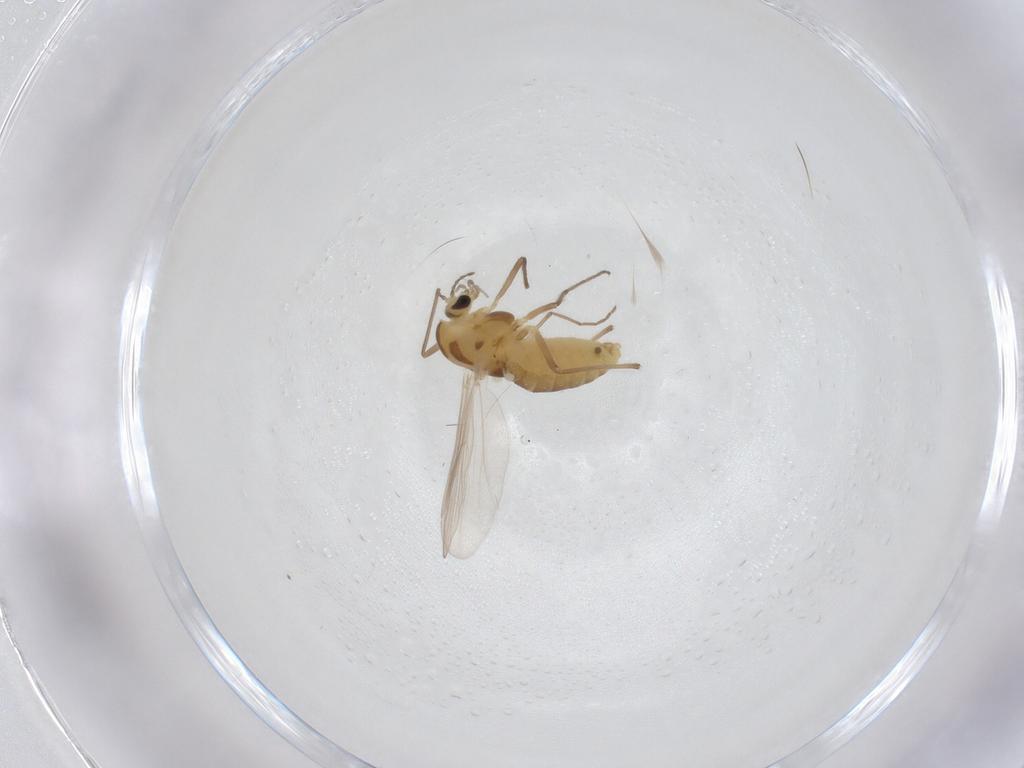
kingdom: Animalia
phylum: Arthropoda
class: Insecta
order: Diptera
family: Chironomidae
